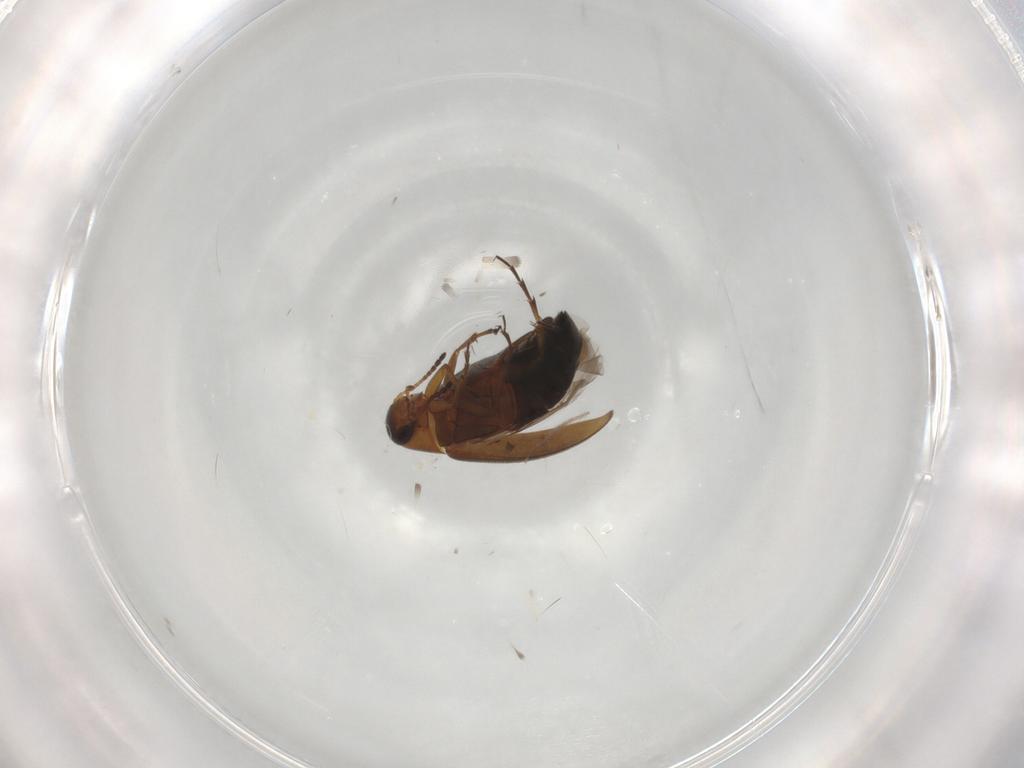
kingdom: Animalia
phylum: Arthropoda
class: Insecta
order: Coleoptera
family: Scraptiidae
